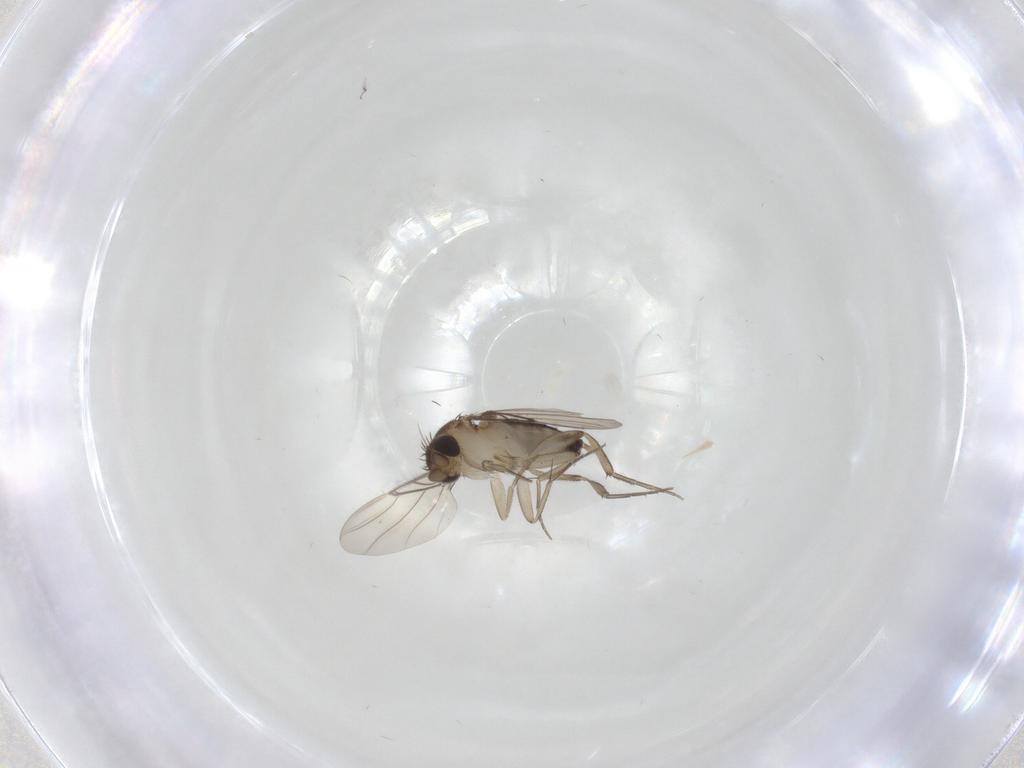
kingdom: Animalia
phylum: Arthropoda
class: Insecta
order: Diptera
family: Phoridae
